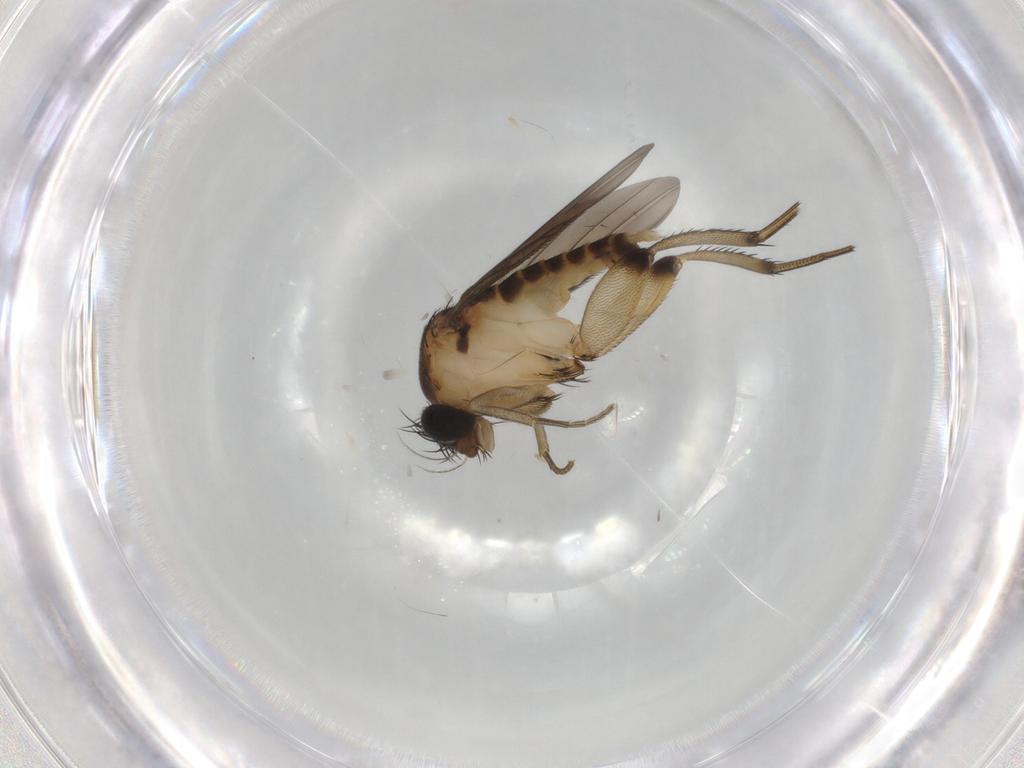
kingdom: Animalia
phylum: Arthropoda
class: Insecta
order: Diptera
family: Phoridae
